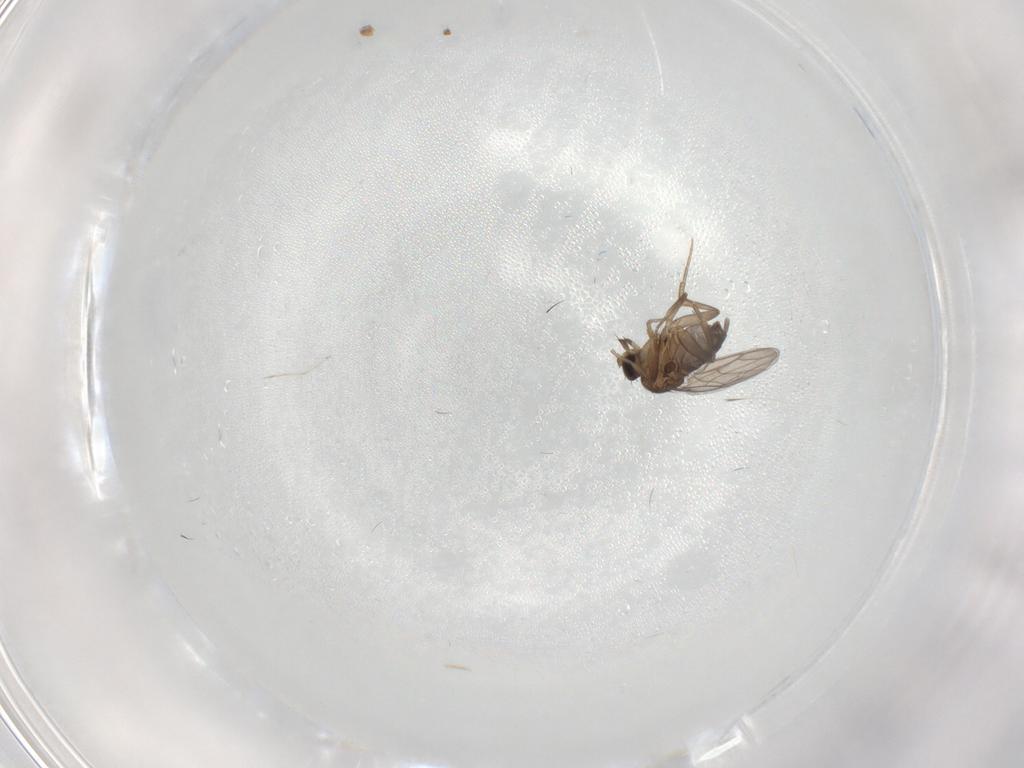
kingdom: Animalia
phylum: Arthropoda
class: Insecta
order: Diptera
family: Phoridae
